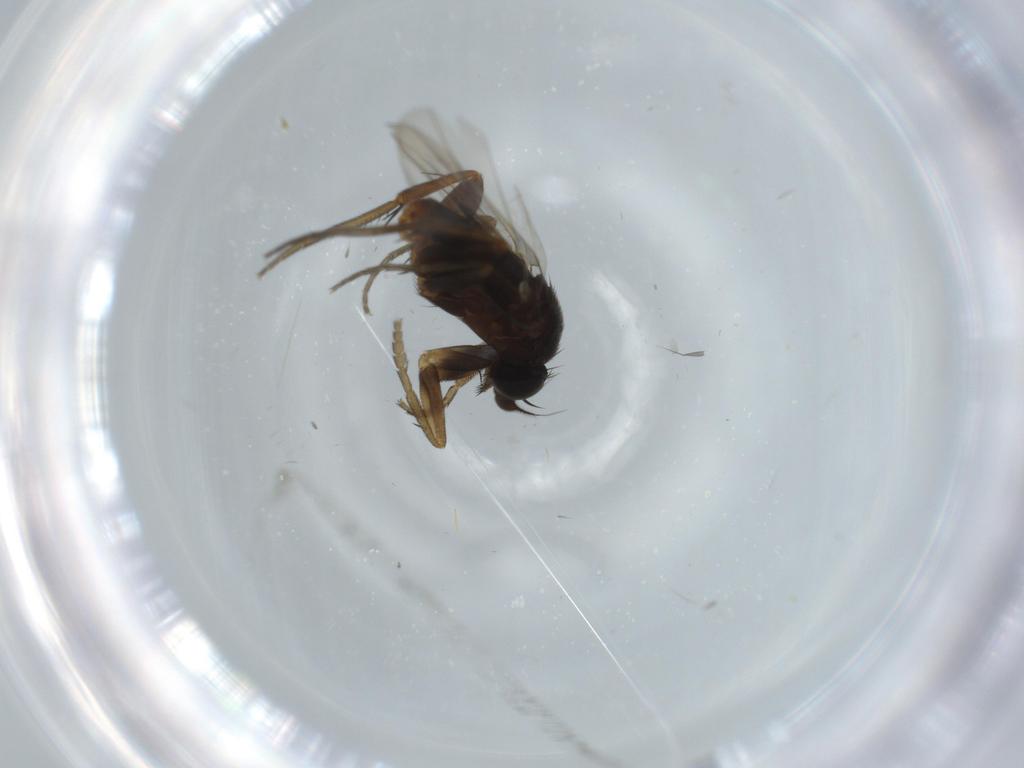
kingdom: Animalia
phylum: Arthropoda
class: Insecta
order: Diptera
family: Phoridae
